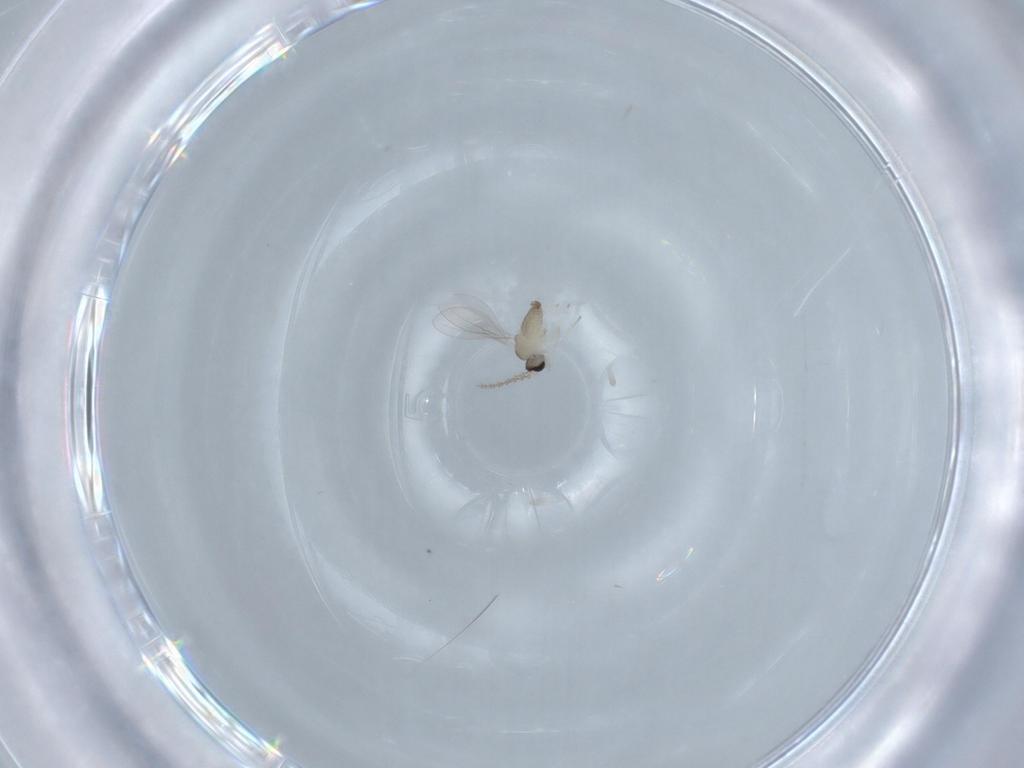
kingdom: Animalia
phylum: Arthropoda
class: Insecta
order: Diptera
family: Cecidomyiidae
